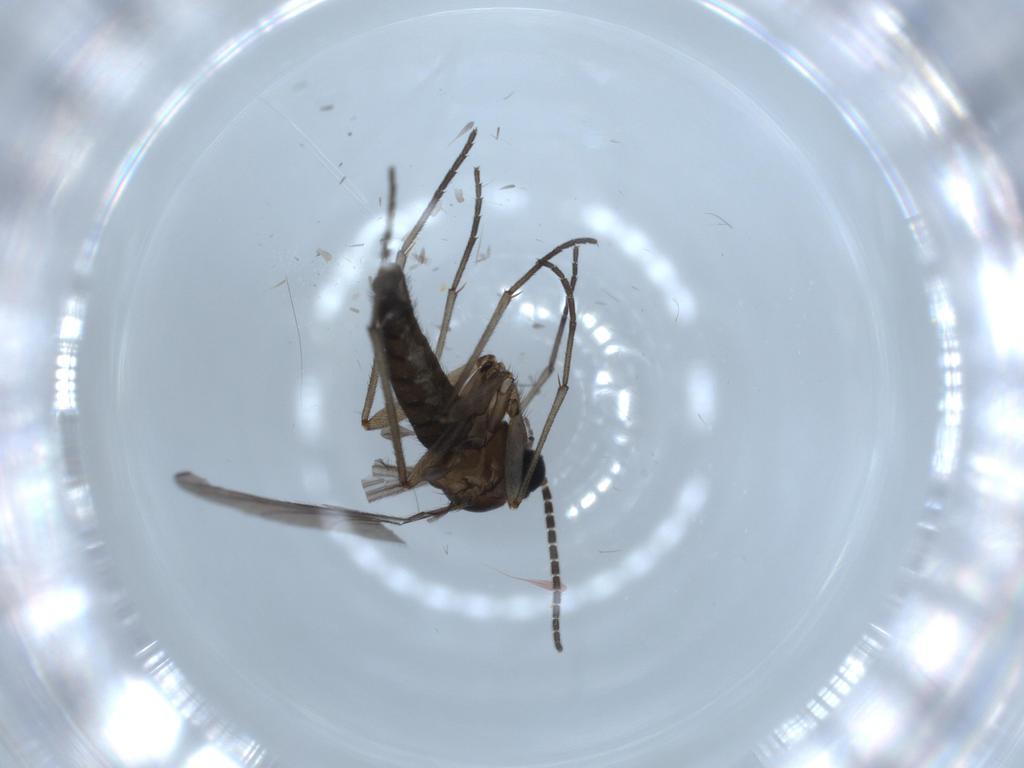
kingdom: Animalia
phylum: Arthropoda
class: Insecta
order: Diptera
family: Sciaridae
